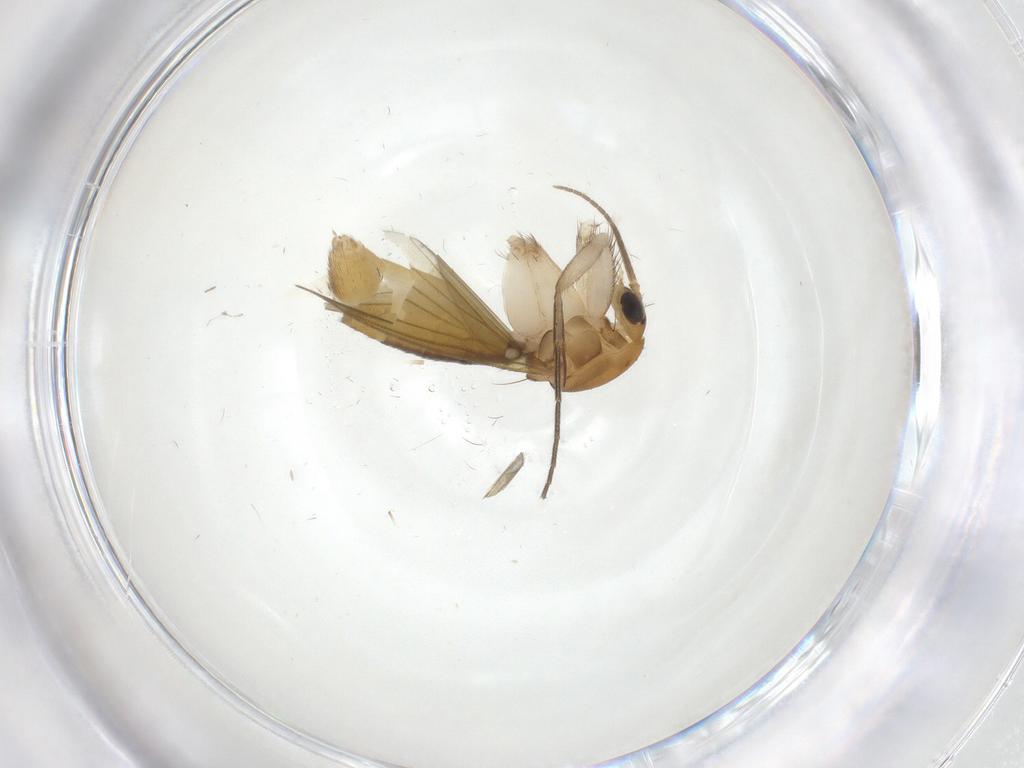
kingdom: Animalia
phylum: Arthropoda
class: Insecta
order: Diptera
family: Mycetophilidae
